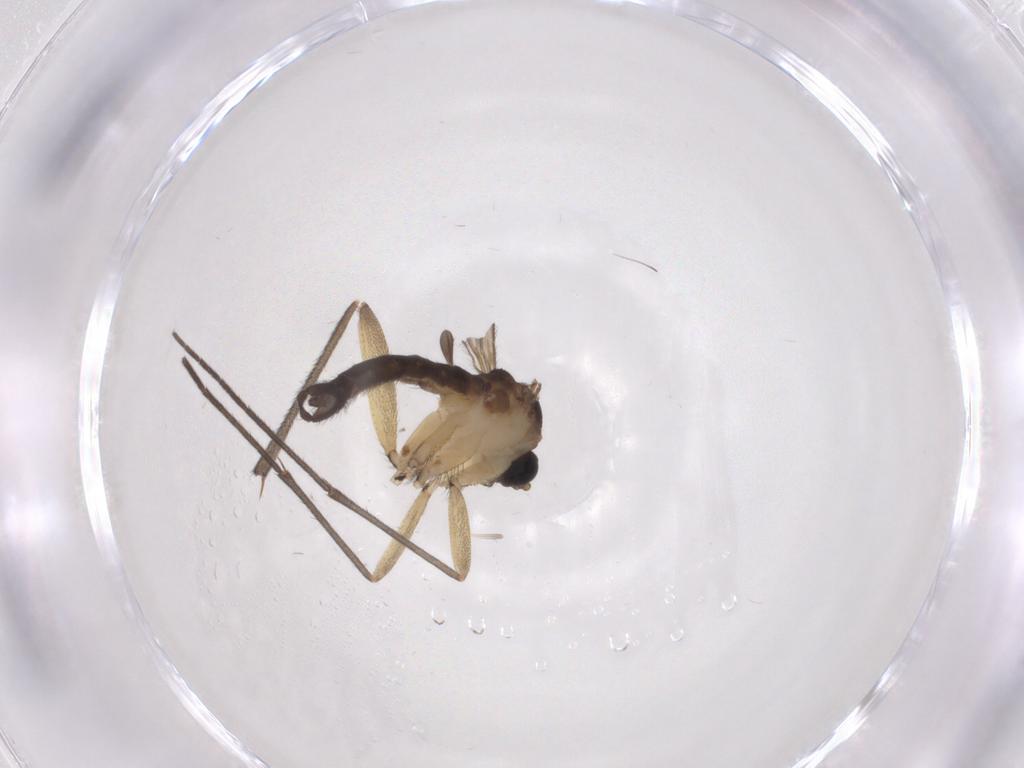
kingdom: Animalia
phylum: Arthropoda
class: Insecta
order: Diptera
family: Sciaridae
